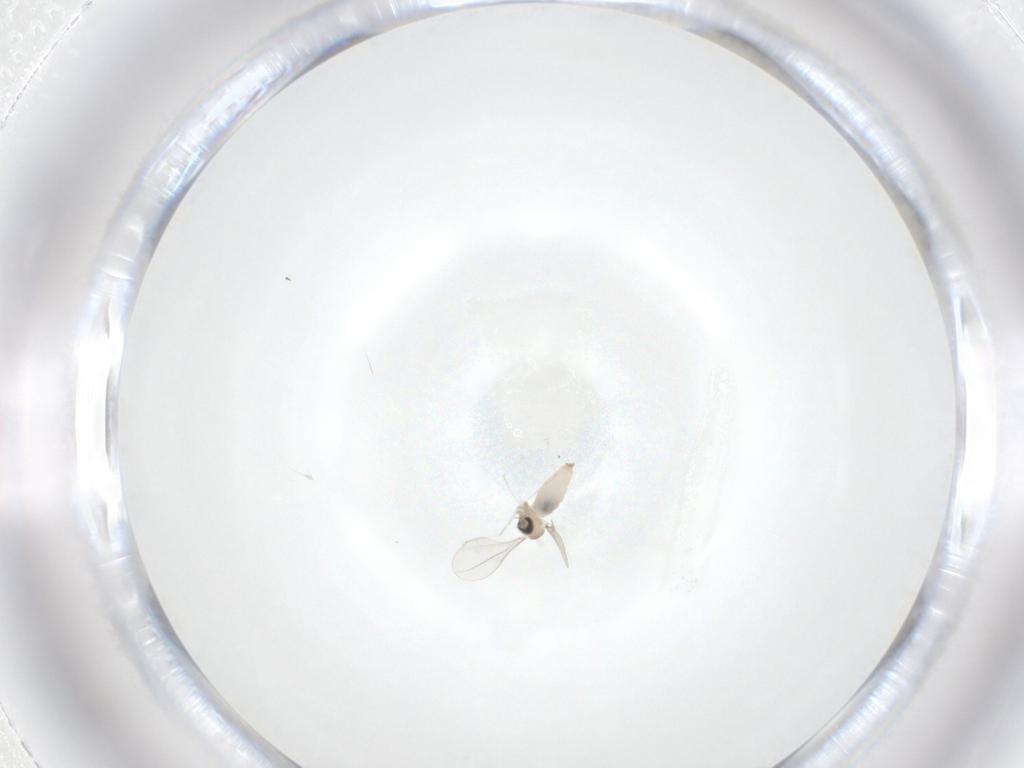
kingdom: Animalia
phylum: Arthropoda
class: Insecta
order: Diptera
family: Cecidomyiidae
